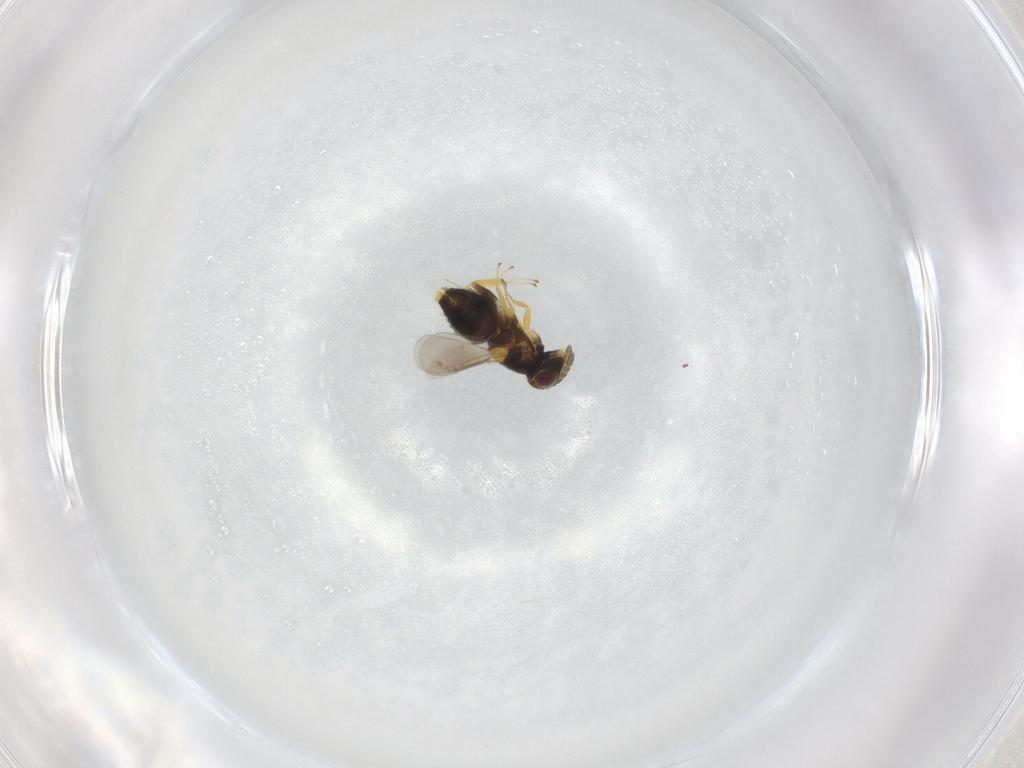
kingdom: Animalia
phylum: Arthropoda
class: Insecta
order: Hymenoptera
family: Aphelinidae
